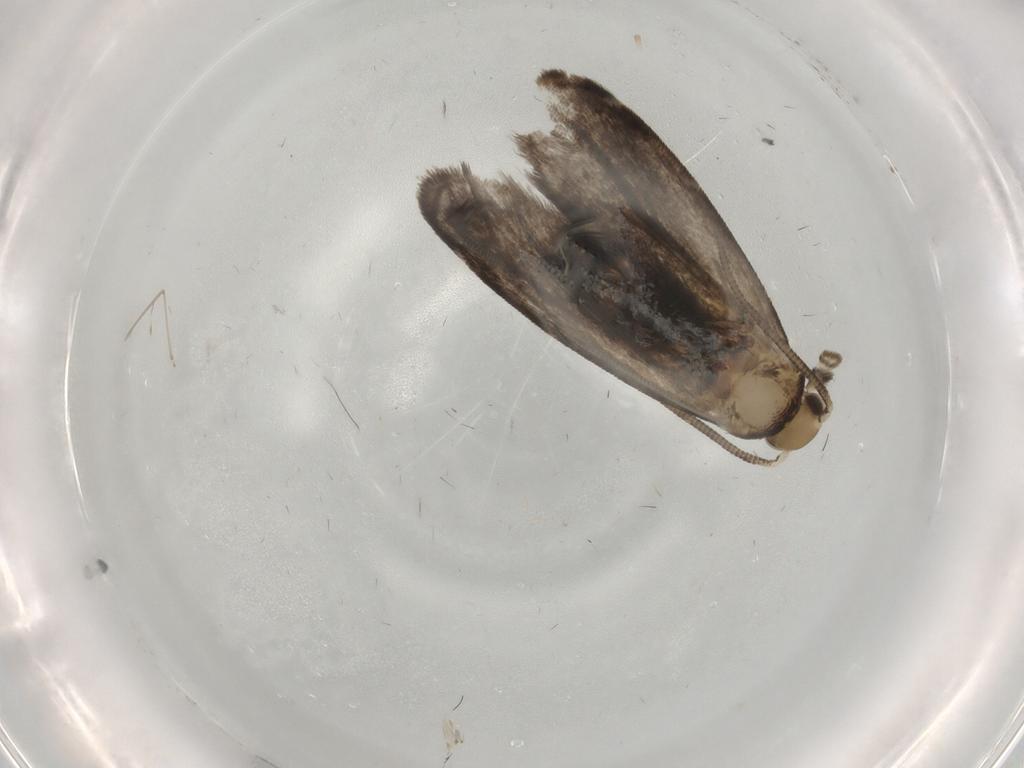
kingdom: Animalia
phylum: Arthropoda
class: Insecta
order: Lepidoptera
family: Dryadaulidae
